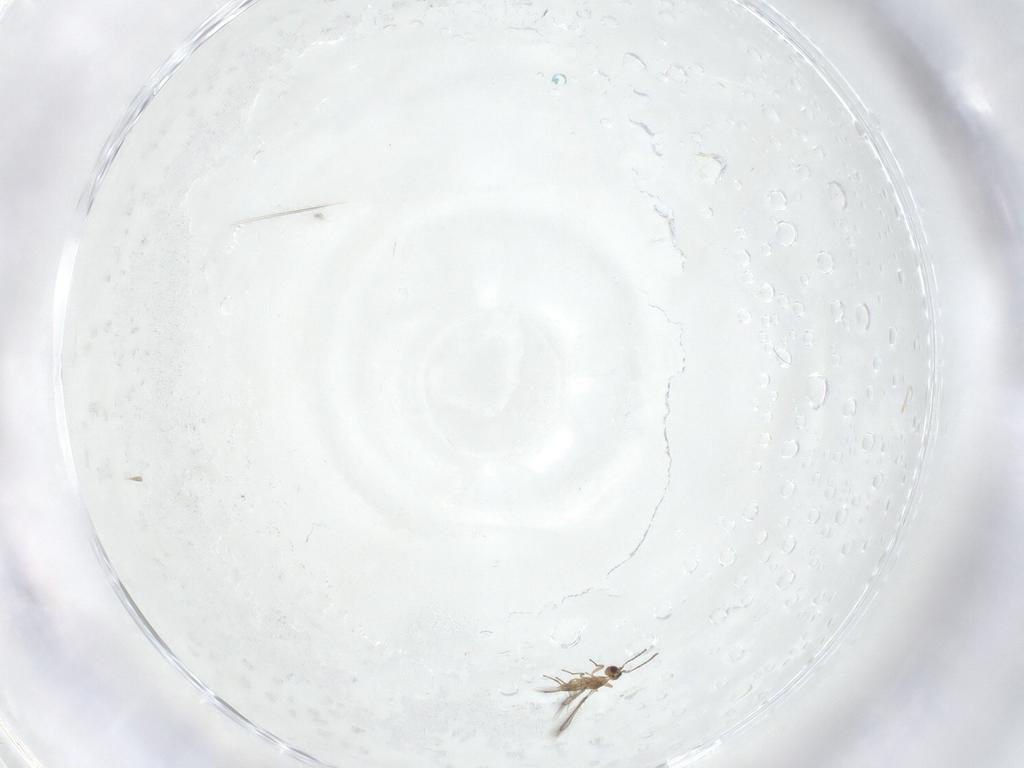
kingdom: Animalia
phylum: Arthropoda
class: Insecta
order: Hymenoptera
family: Mymaridae
